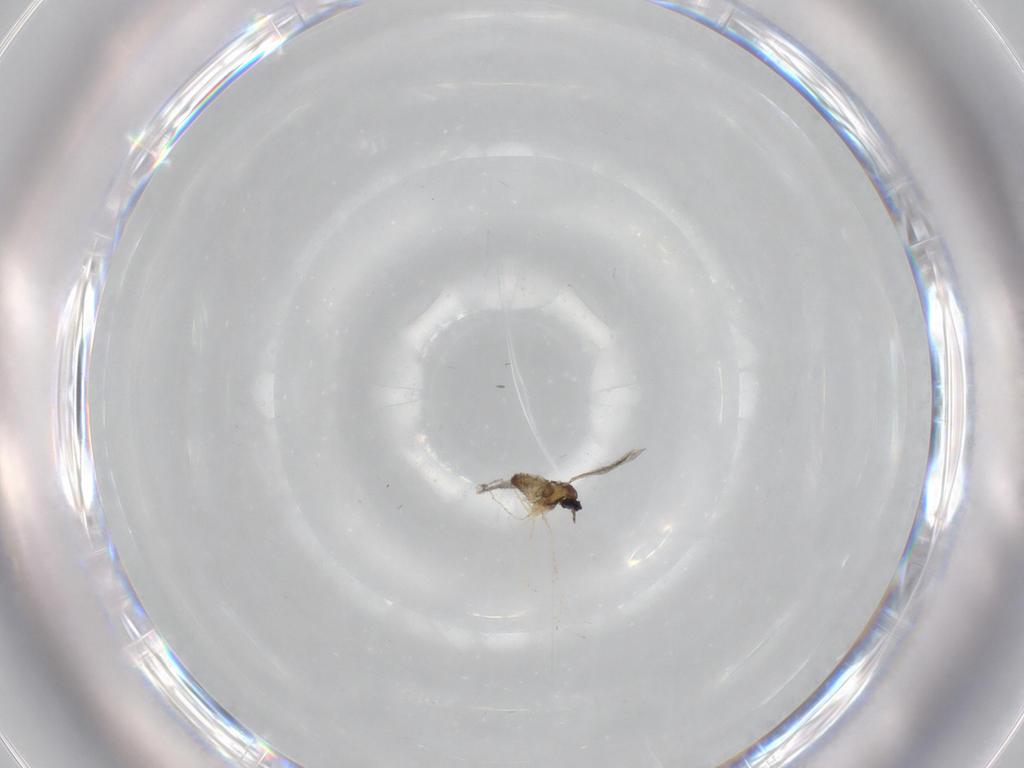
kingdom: Animalia
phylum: Arthropoda
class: Insecta
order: Diptera
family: Cecidomyiidae
